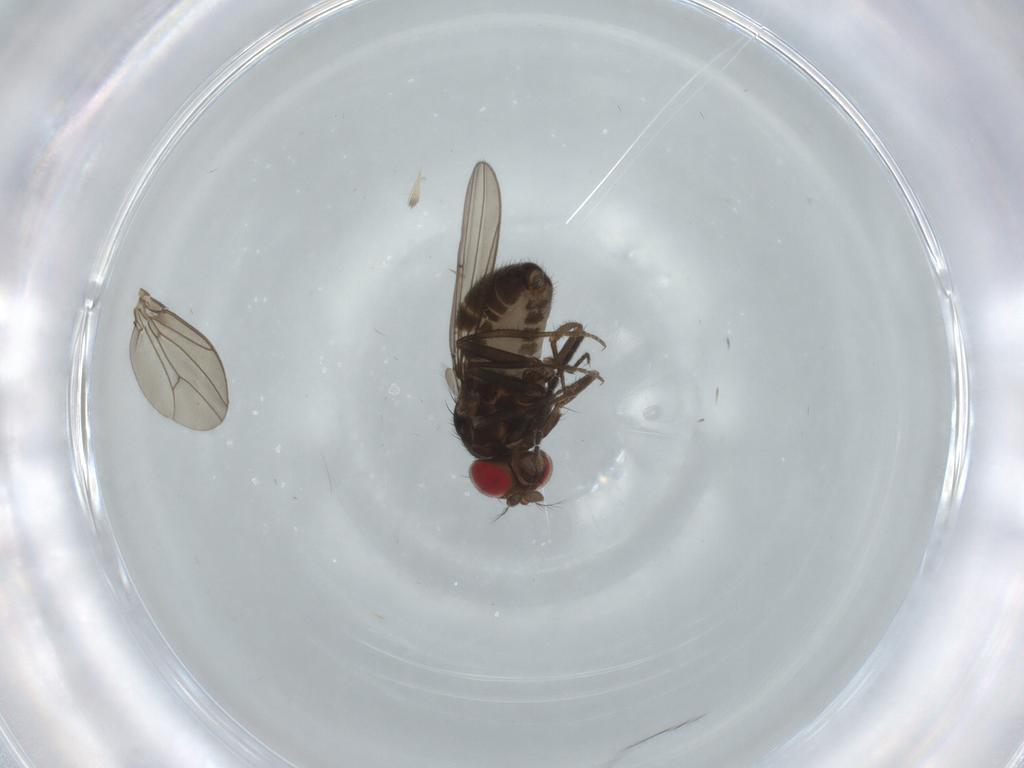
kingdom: Animalia
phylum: Arthropoda
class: Insecta
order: Diptera
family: Drosophilidae
